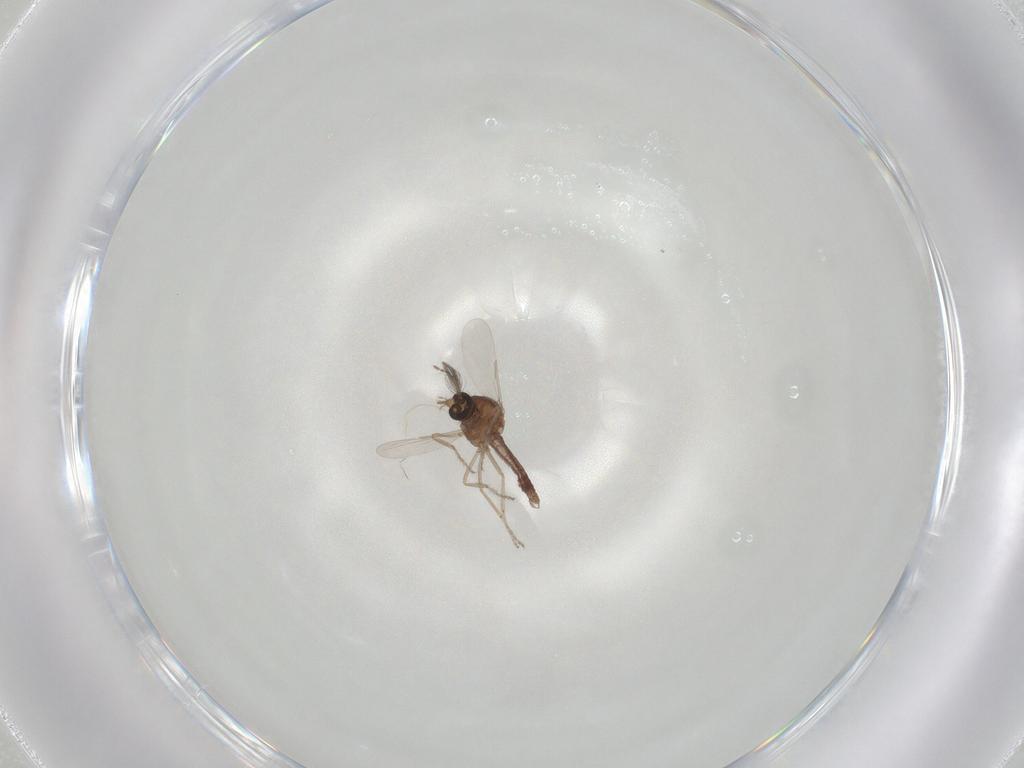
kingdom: Animalia
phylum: Arthropoda
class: Insecta
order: Diptera
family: Ceratopogonidae
